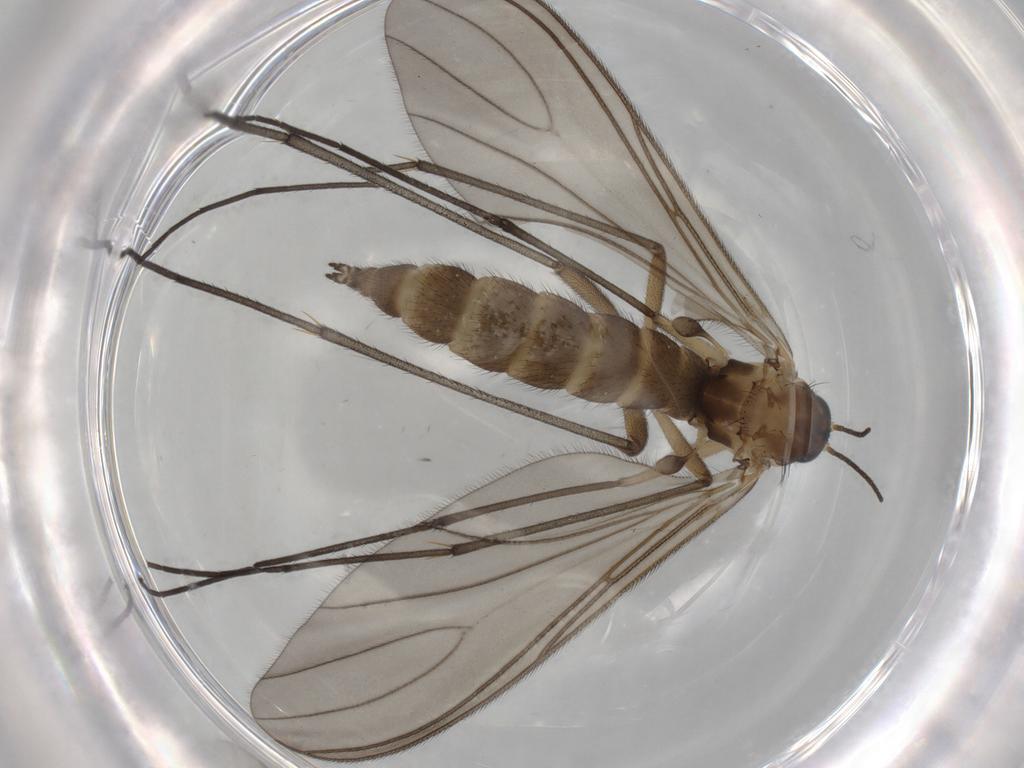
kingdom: Animalia
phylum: Arthropoda
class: Insecta
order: Diptera
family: Sciaridae
